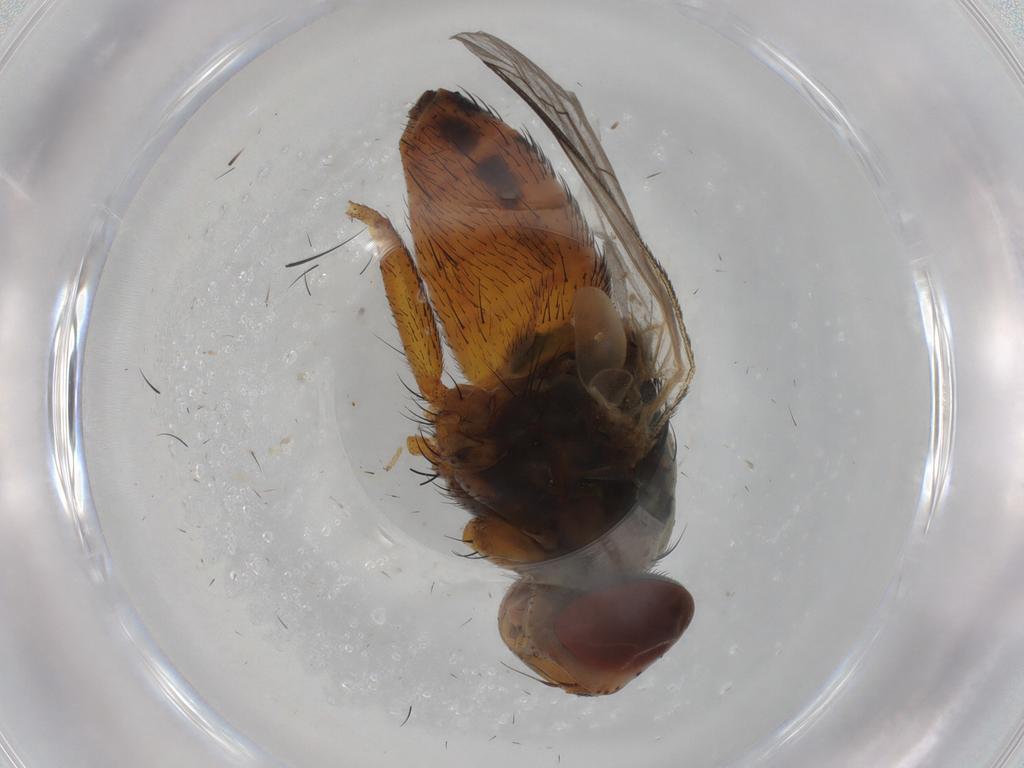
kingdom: Animalia
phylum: Arthropoda
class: Insecta
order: Diptera
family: Sarcophagidae
